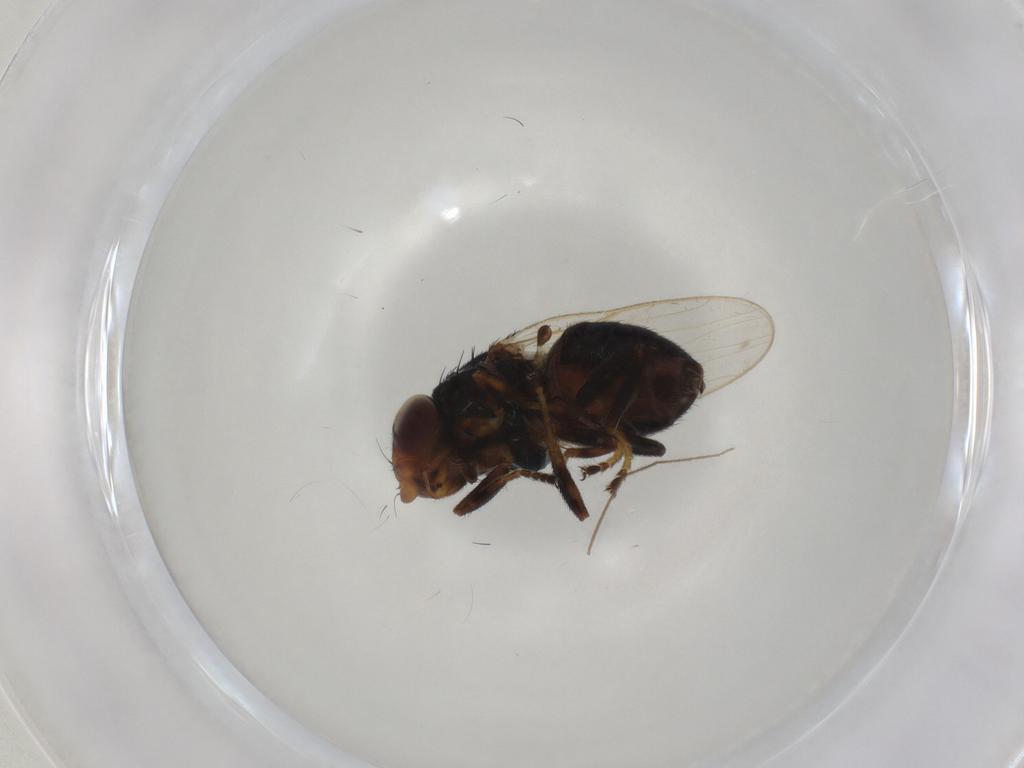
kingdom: Animalia
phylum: Arthropoda
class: Insecta
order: Diptera
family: Chloropidae
